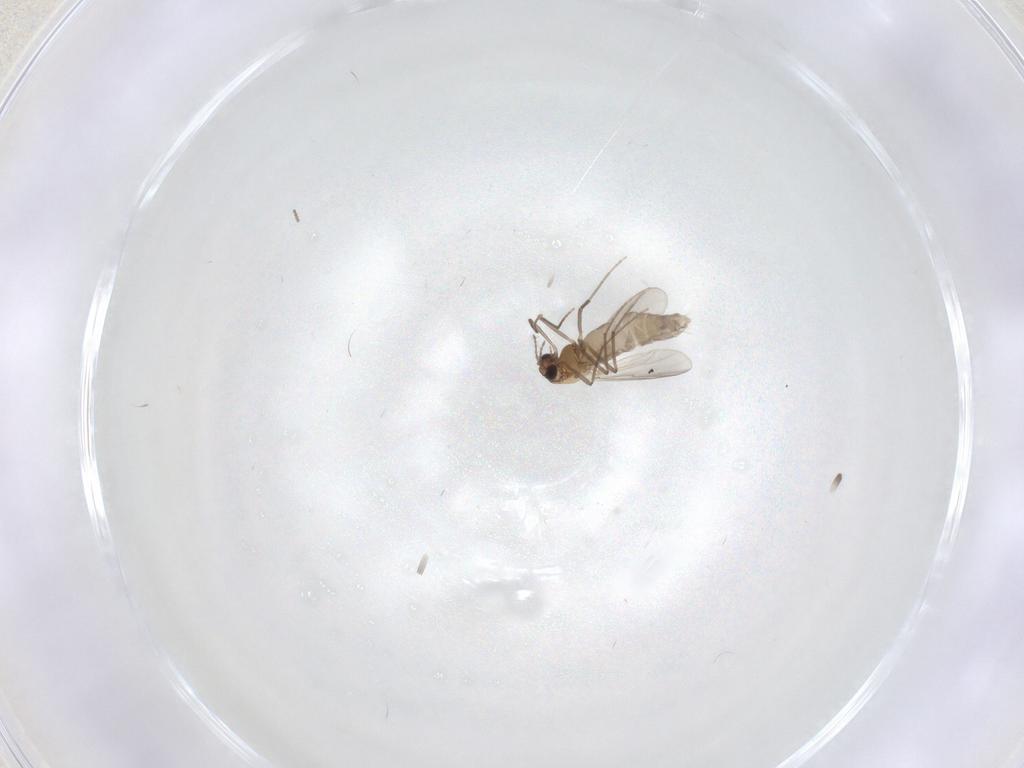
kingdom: Animalia
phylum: Arthropoda
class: Insecta
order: Diptera
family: Chironomidae
